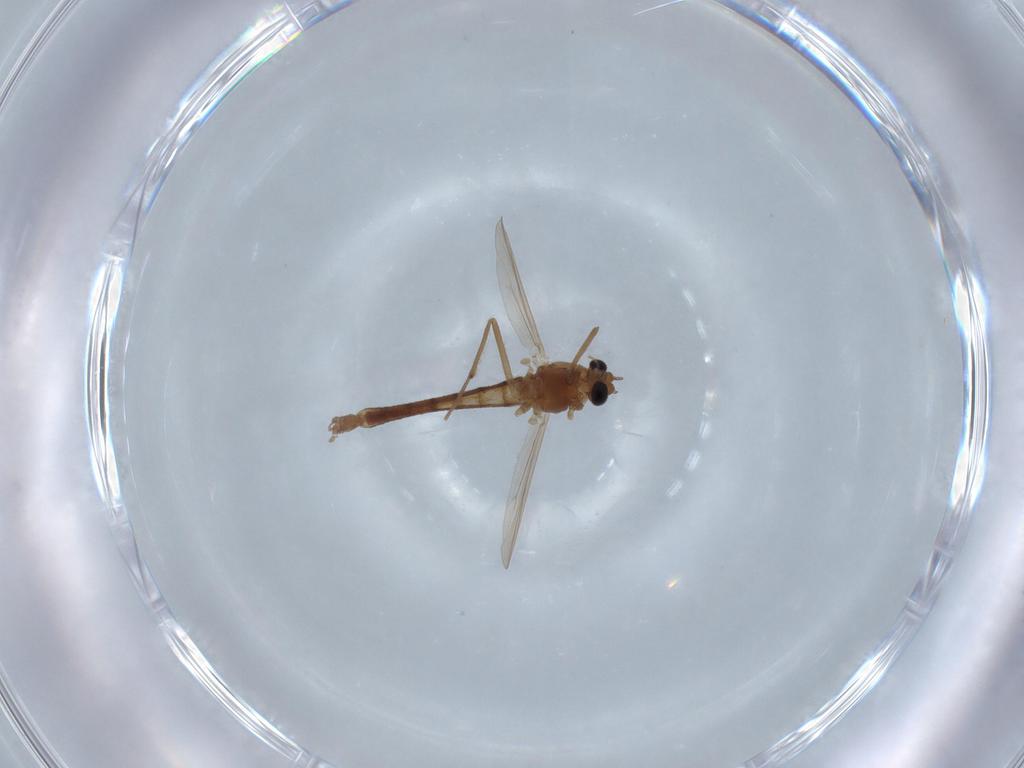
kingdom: Animalia
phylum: Arthropoda
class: Insecta
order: Diptera
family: Chironomidae
